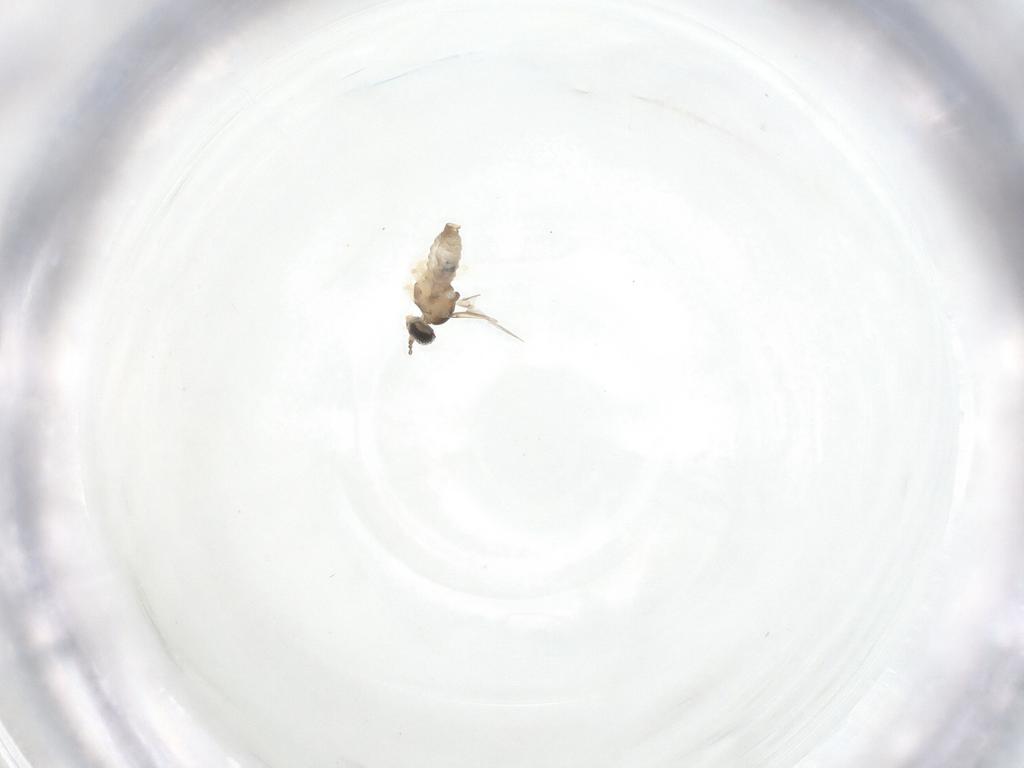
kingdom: Animalia
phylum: Arthropoda
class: Insecta
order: Diptera
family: Cecidomyiidae
